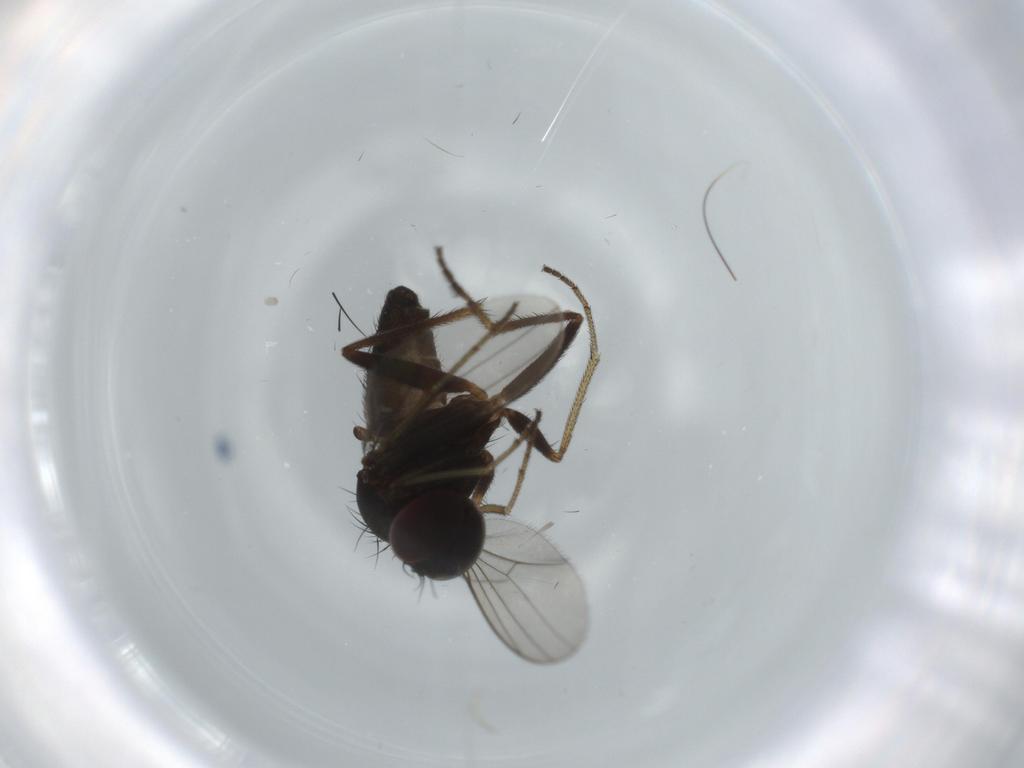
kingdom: Animalia
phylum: Arthropoda
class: Insecta
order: Diptera
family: Dolichopodidae
